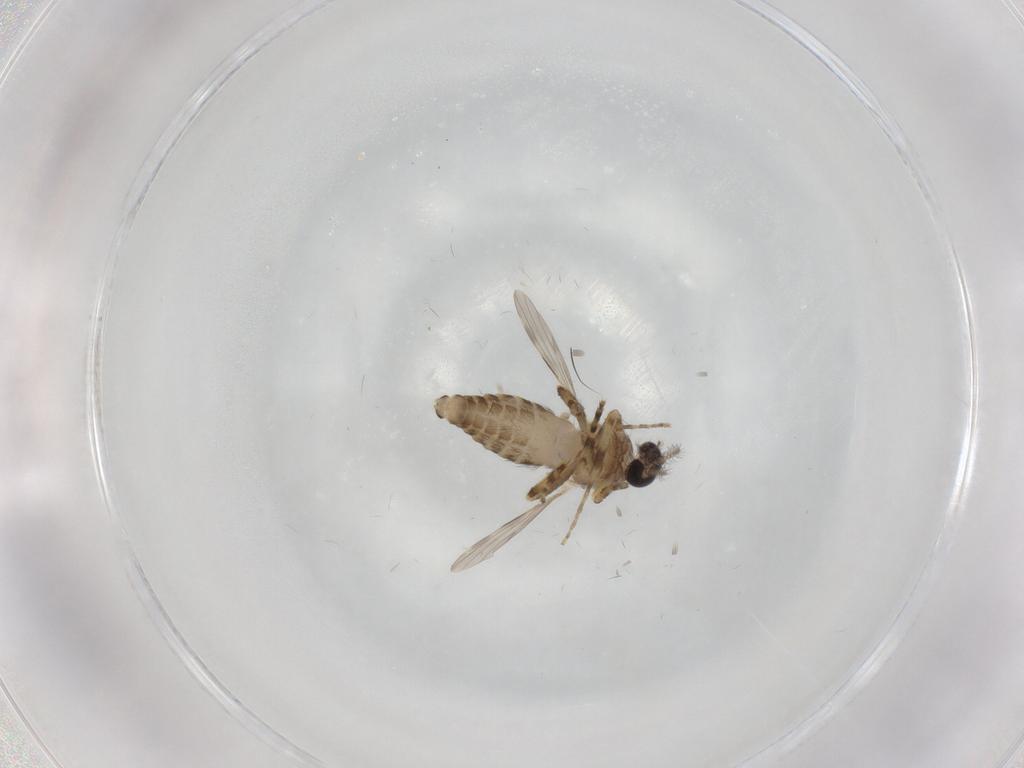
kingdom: Animalia
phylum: Arthropoda
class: Insecta
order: Diptera
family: Ceratopogonidae
